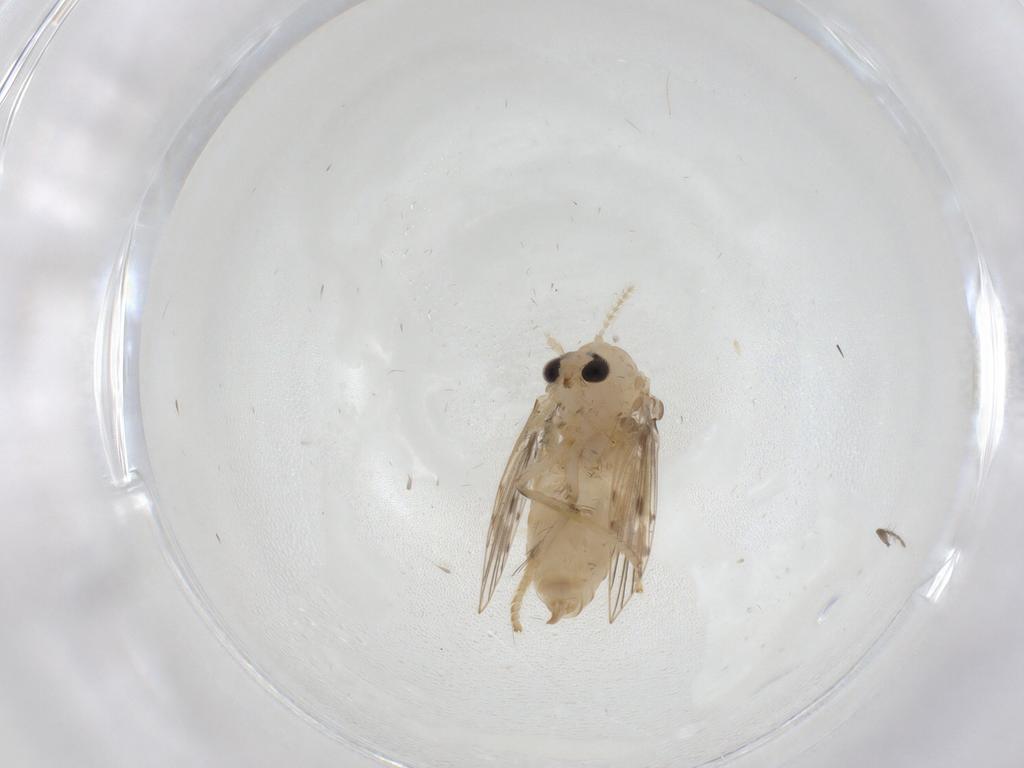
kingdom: Animalia
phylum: Arthropoda
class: Insecta
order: Diptera
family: Psychodidae
